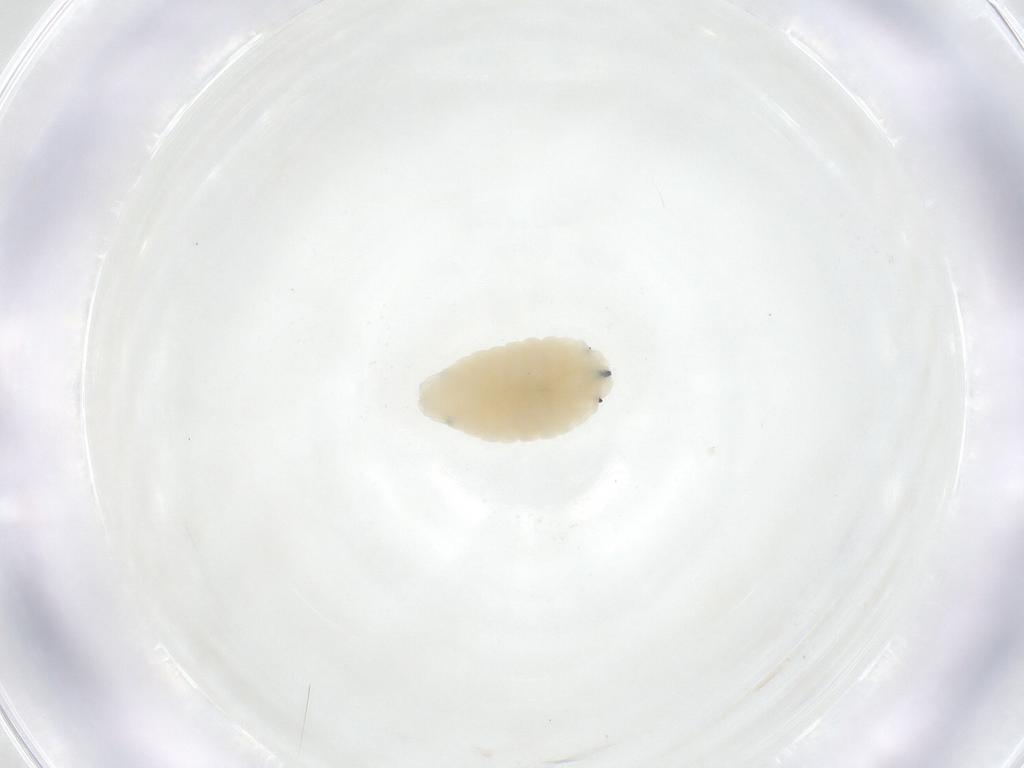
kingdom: Animalia
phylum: Arthropoda
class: Insecta
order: Diptera
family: Fergusoninidae
